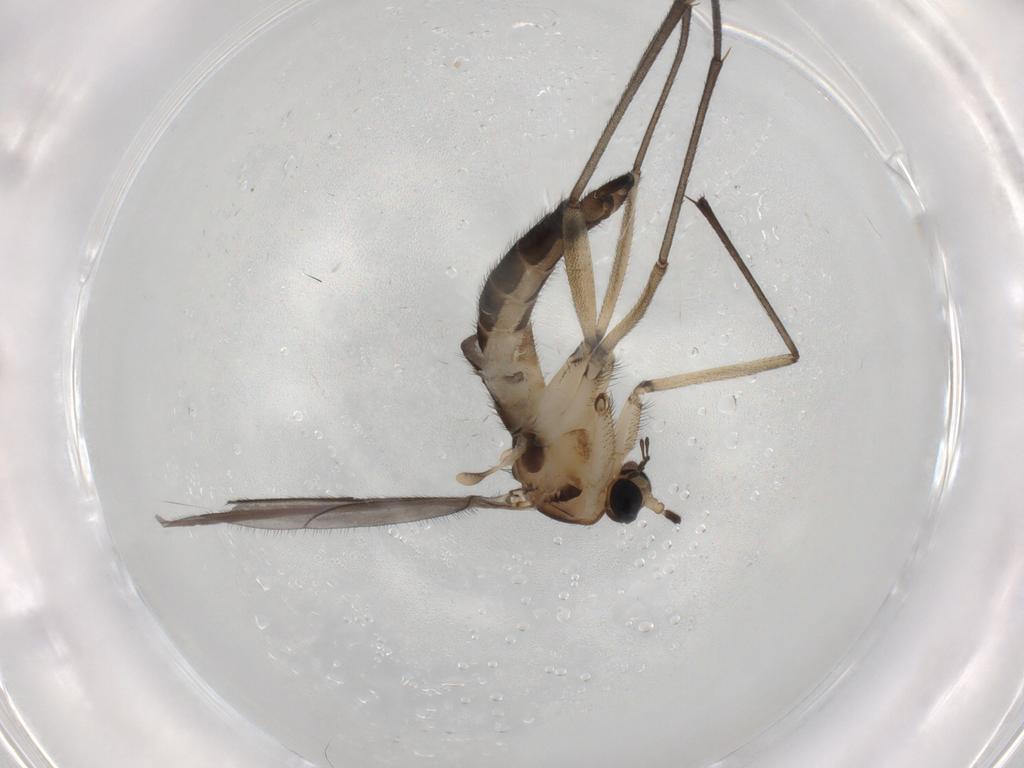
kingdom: Animalia
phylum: Arthropoda
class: Insecta
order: Diptera
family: Sciaridae
